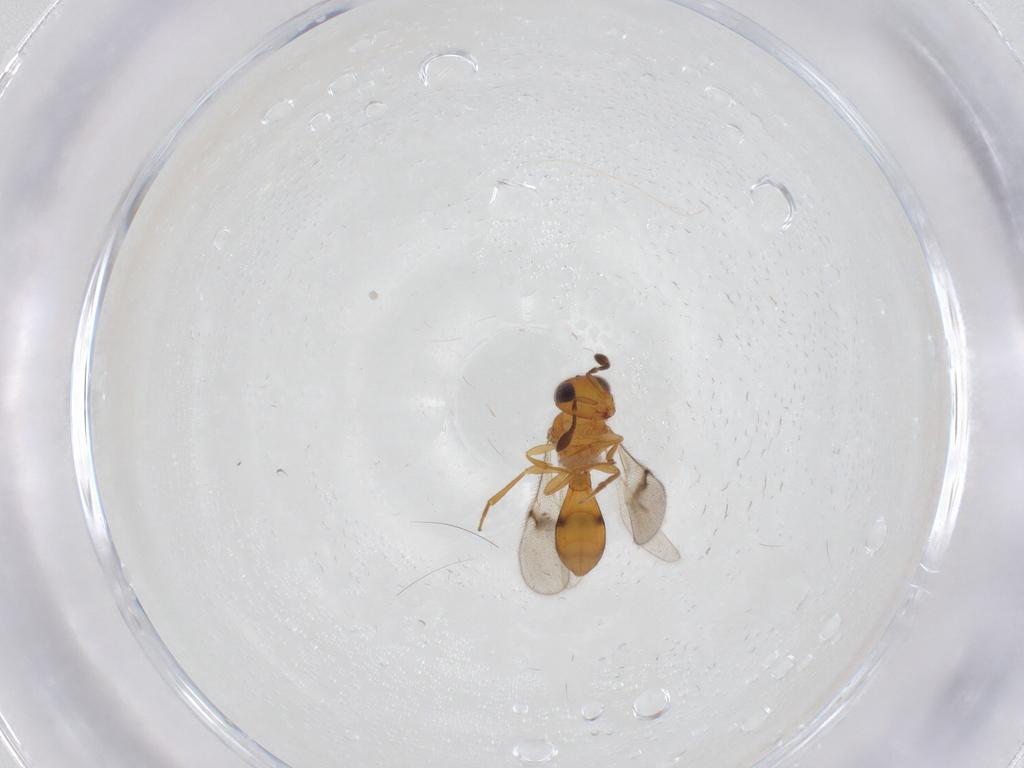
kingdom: Animalia
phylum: Arthropoda
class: Insecta
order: Hymenoptera
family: Scelionidae
